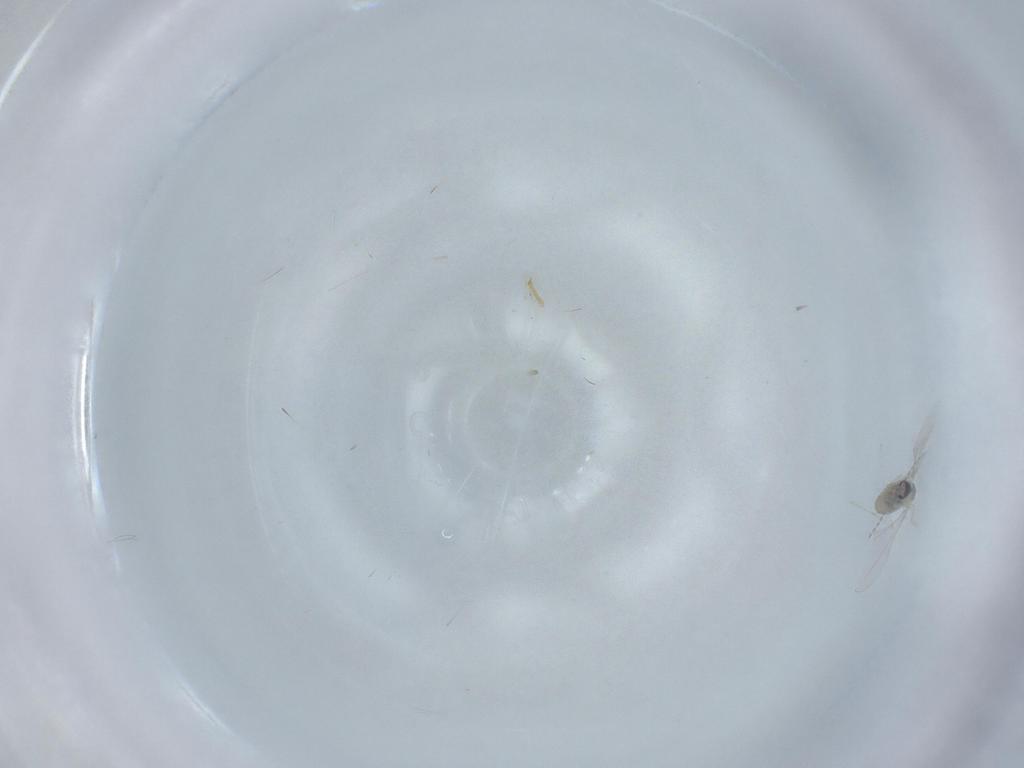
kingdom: Animalia
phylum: Arthropoda
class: Insecta
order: Diptera
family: Cecidomyiidae
